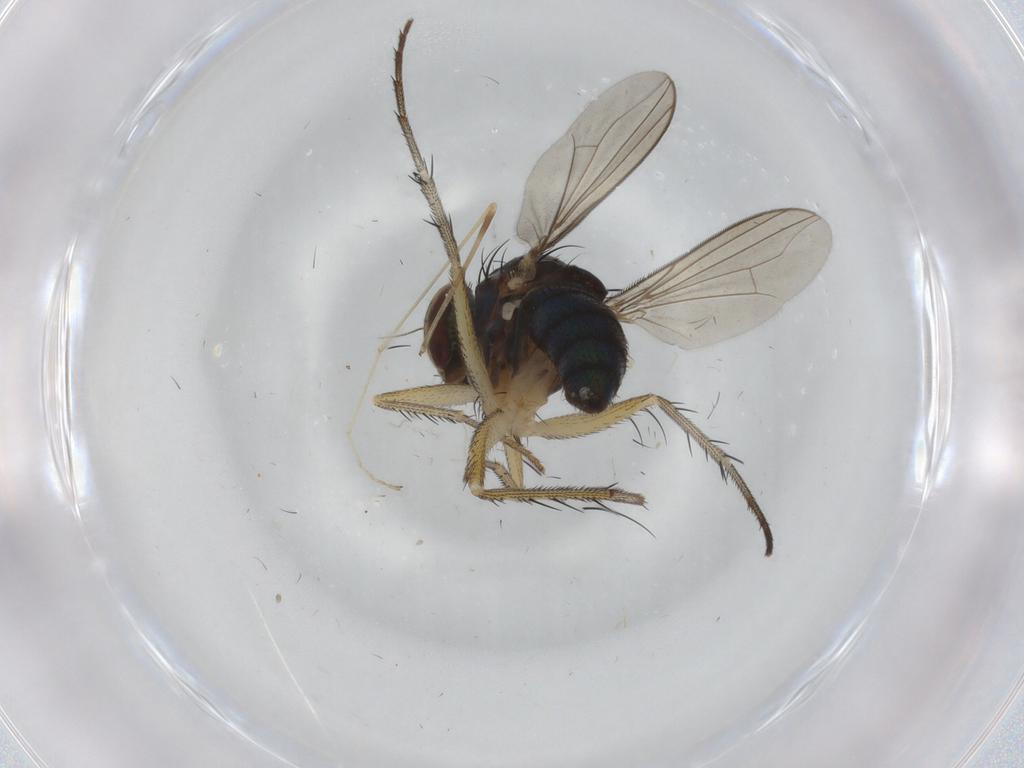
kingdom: Animalia
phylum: Arthropoda
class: Insecta
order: Diptera
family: Dolichopodidae
